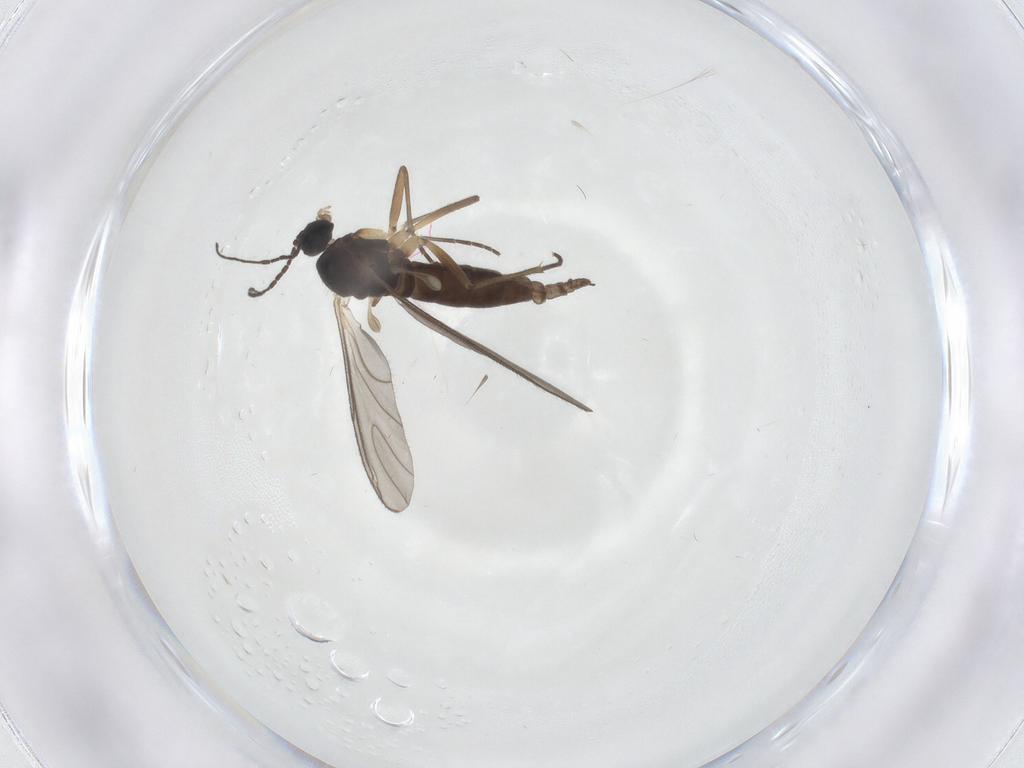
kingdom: Animalia
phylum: Arthropoda
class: Insecta
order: Diptera
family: Sciaridae
